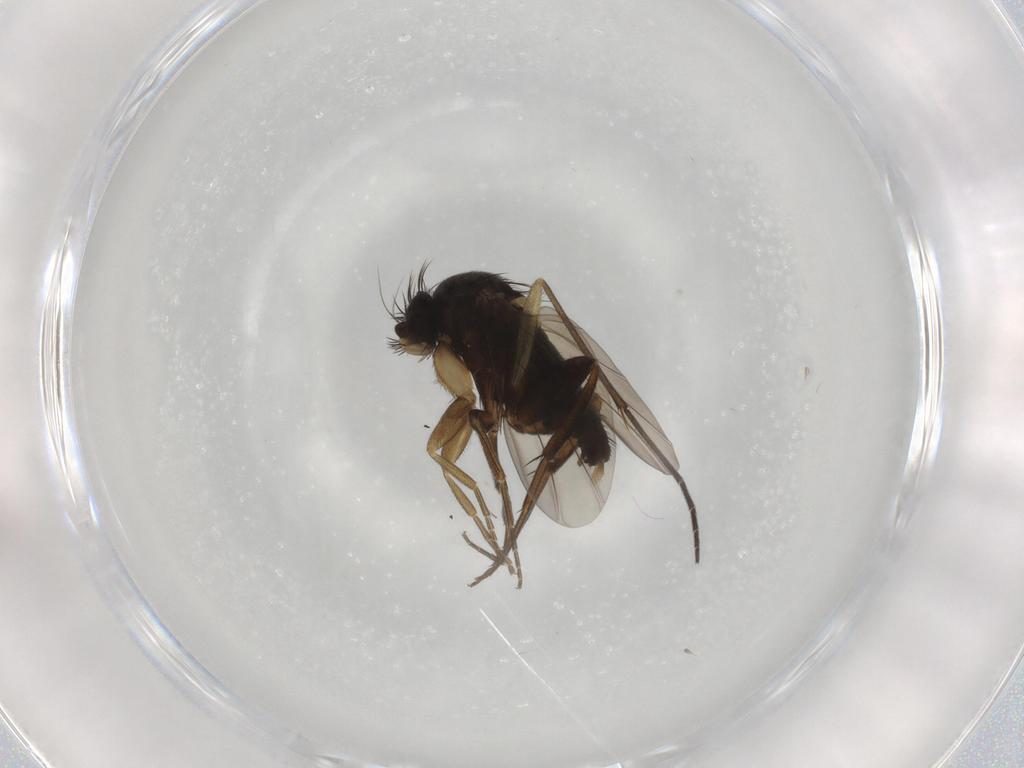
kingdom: Animalia
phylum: Arthropoda
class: Insecta
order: Diptera
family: Phoridae
